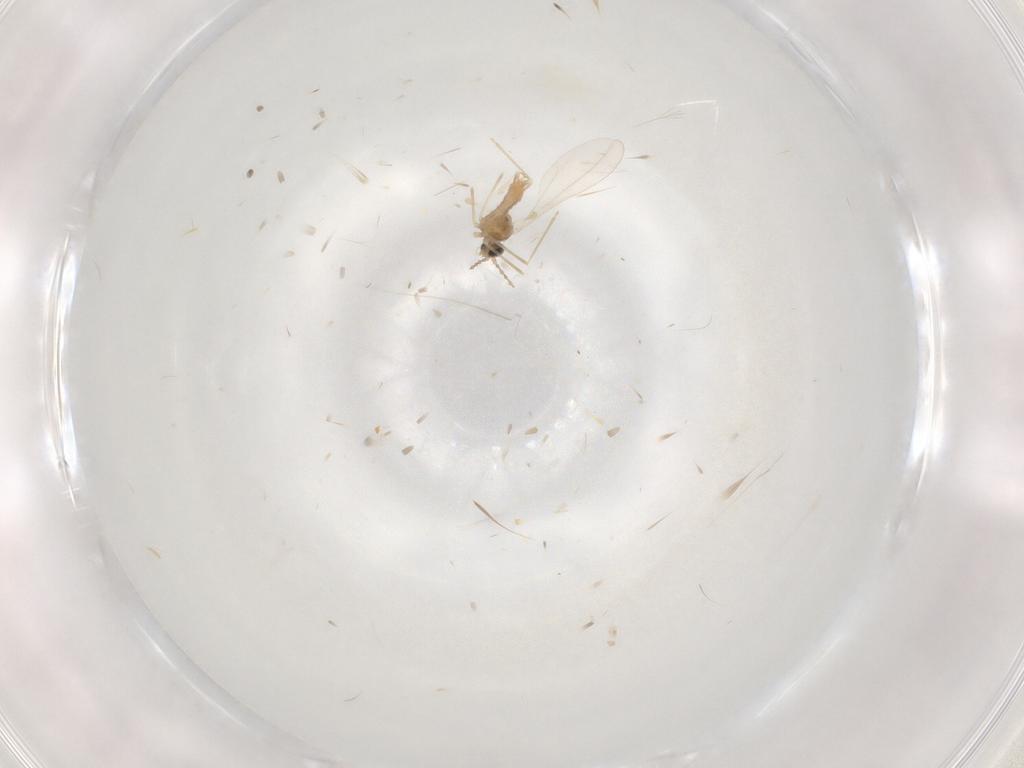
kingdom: Animalia
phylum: Arthropoda
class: Insecta
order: Diptera
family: Cecidomyiidae
